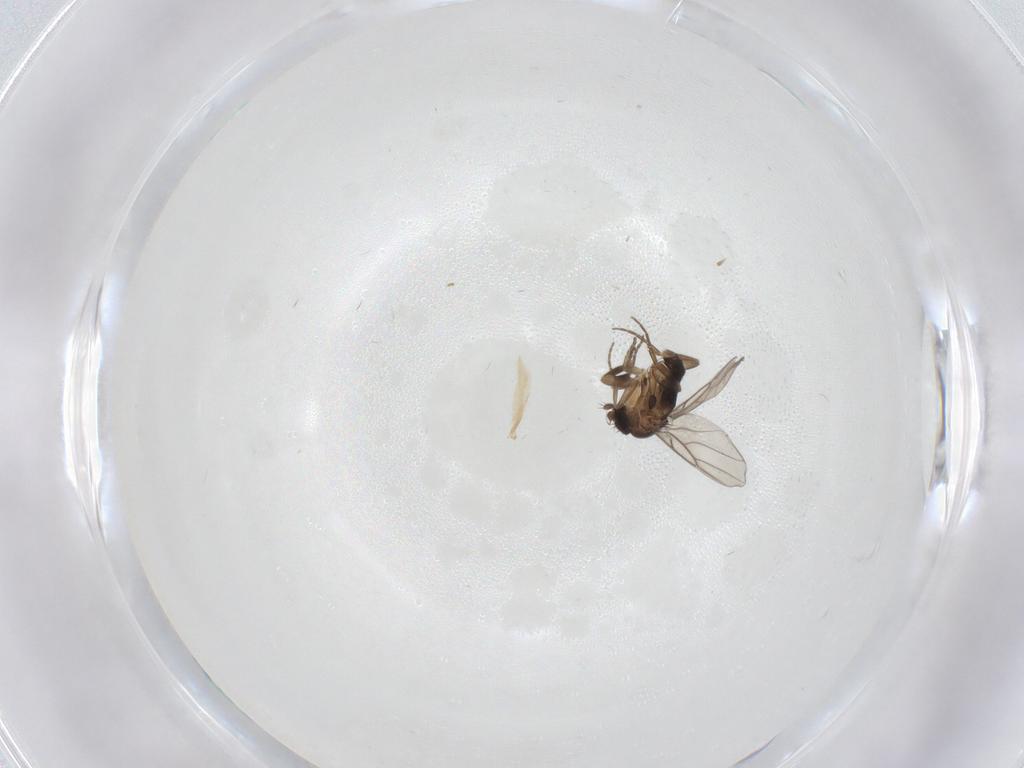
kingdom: Animalia
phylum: Arthropoda
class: Insecta
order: Diptera
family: Phoridae
